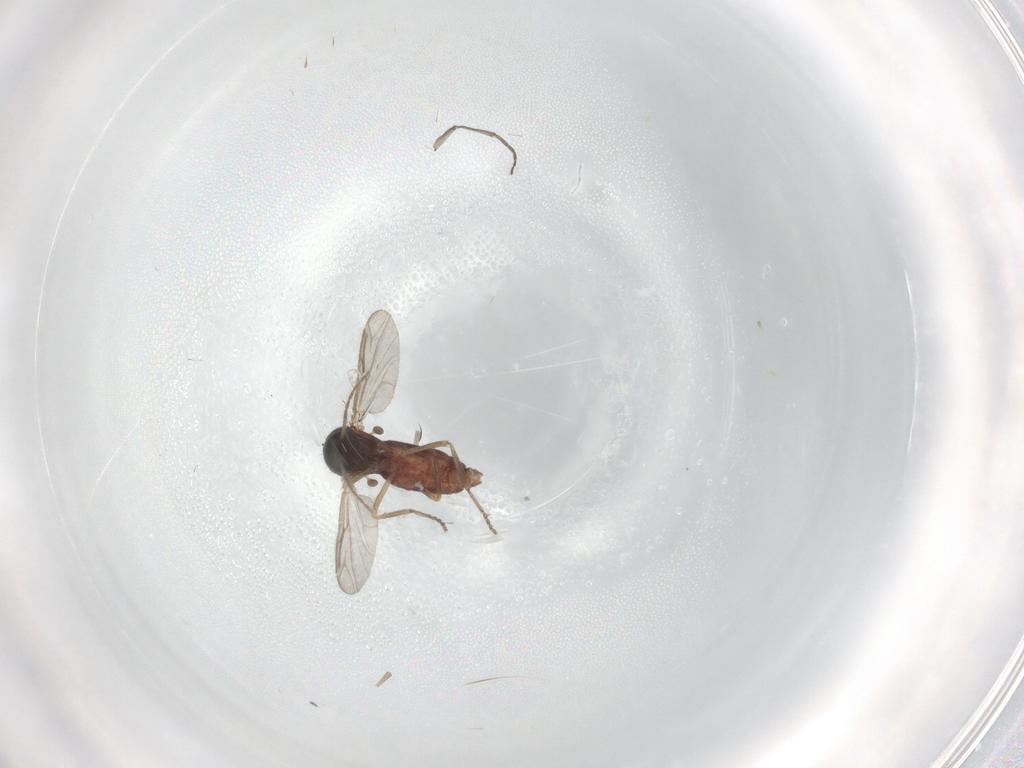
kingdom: Animalia
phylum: Arthropoda
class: Insecta
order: Diptera
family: Ceratopogonidae
